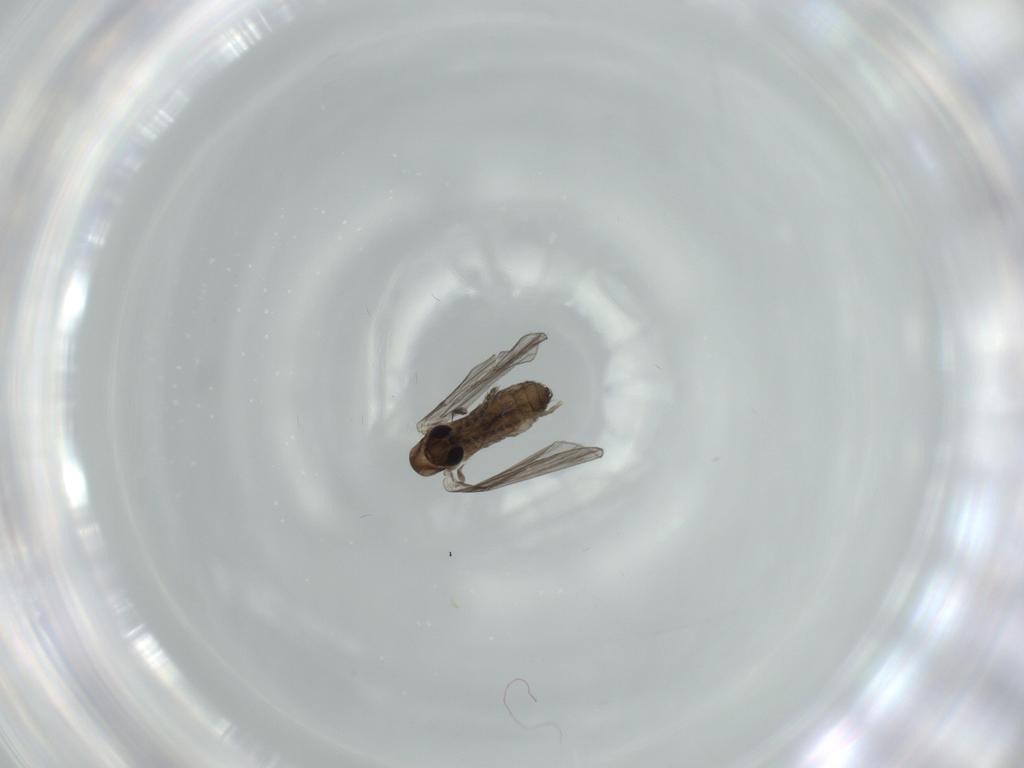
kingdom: Animalia
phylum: Arthropoda
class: Insecta
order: Diptera
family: Psychodidae
